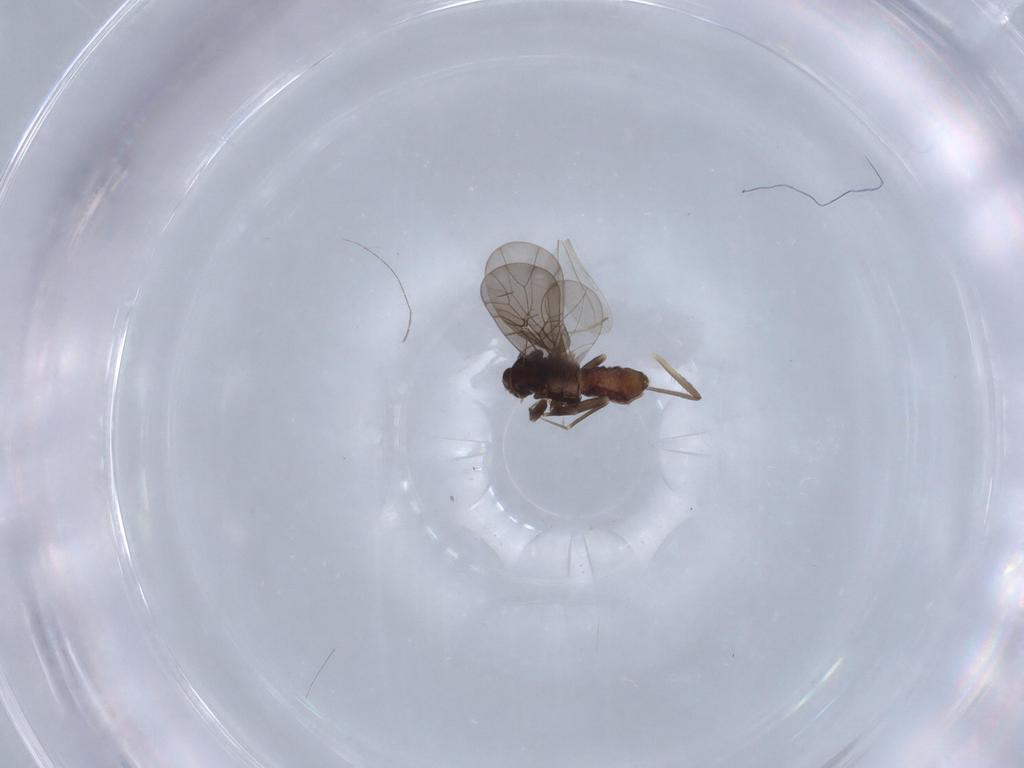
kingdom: Animalia
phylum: Arthropoda
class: Insecta
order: Psocodea
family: Lepidopsocidae
